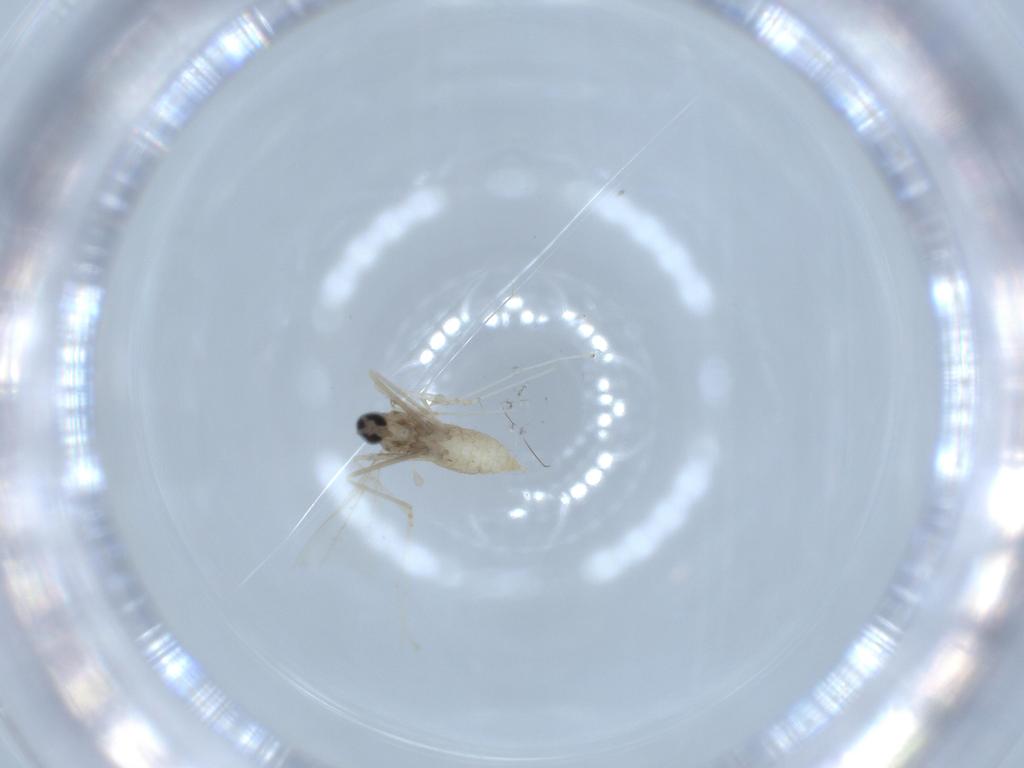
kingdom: Animalia
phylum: Arthropoda
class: Insecta
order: Diptera
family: Cecidomyiidae
